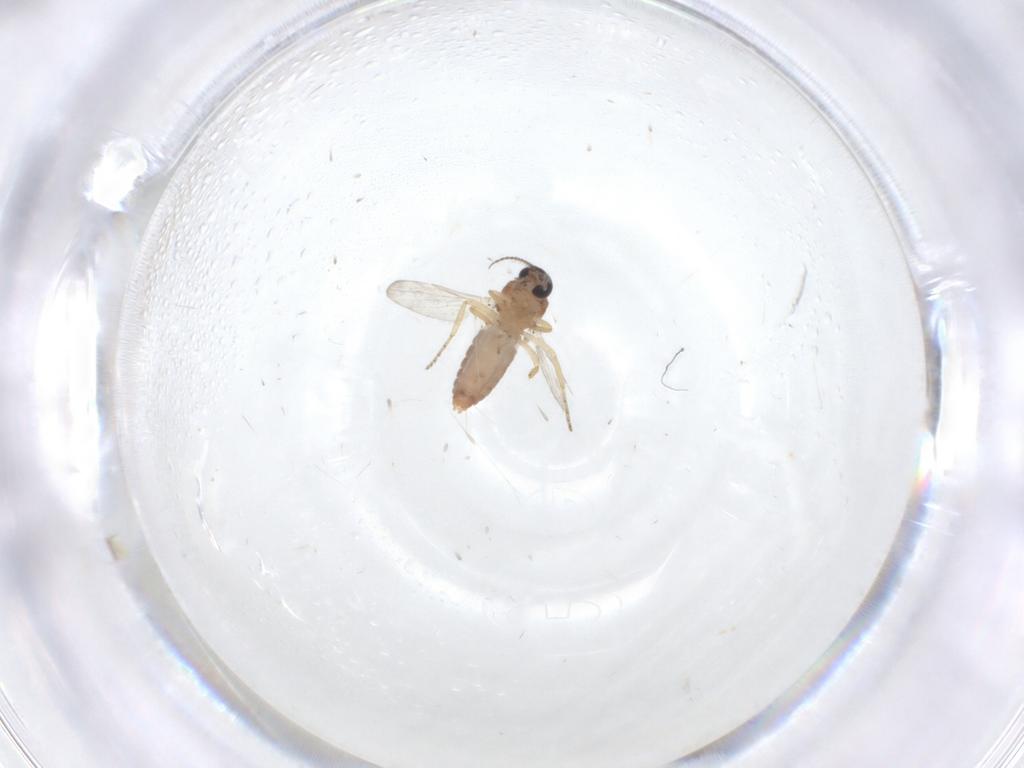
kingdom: Animalia
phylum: Arthropoda
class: Insecta
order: Diptera
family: Ceratopogonidae
